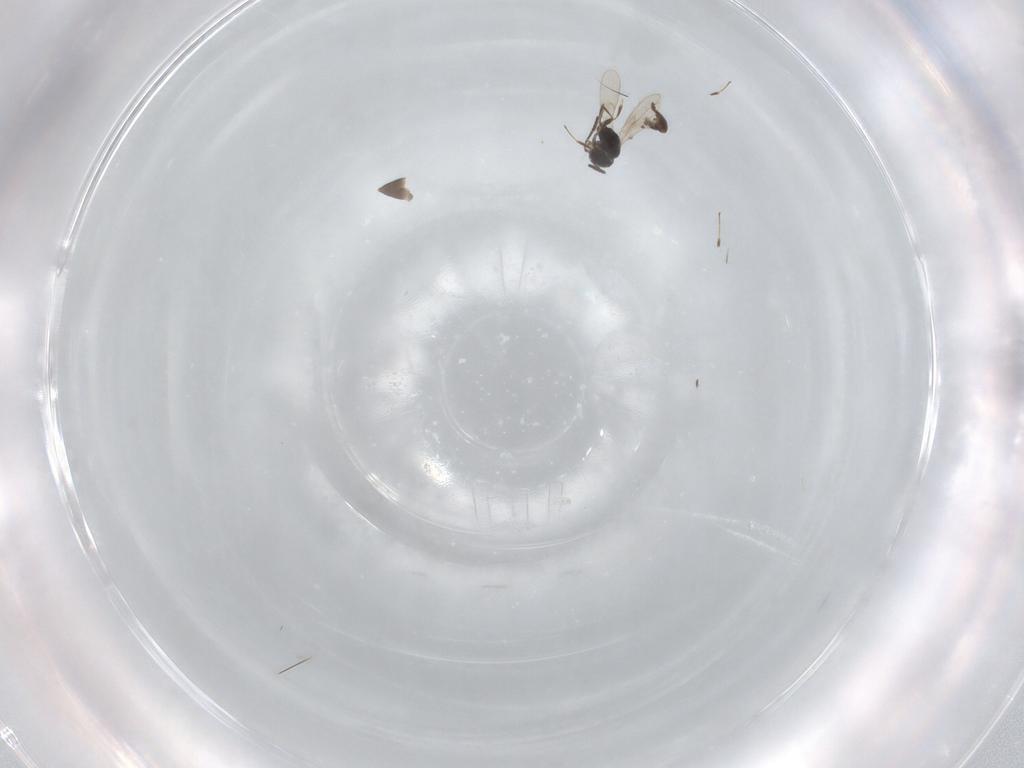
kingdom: Animalia
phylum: Arthropoda
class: Insecta
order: Hymenoptera
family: Scelionidae
